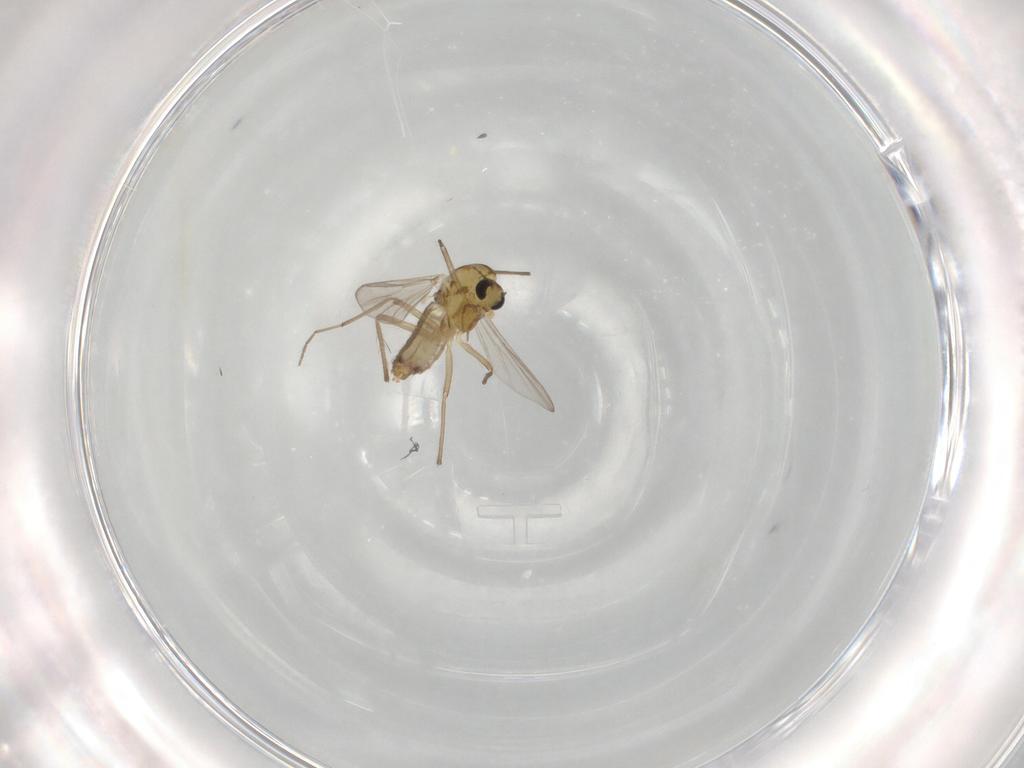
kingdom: Animalia
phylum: Arthropoda
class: Insecta
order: Diptera
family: Chironomidae
